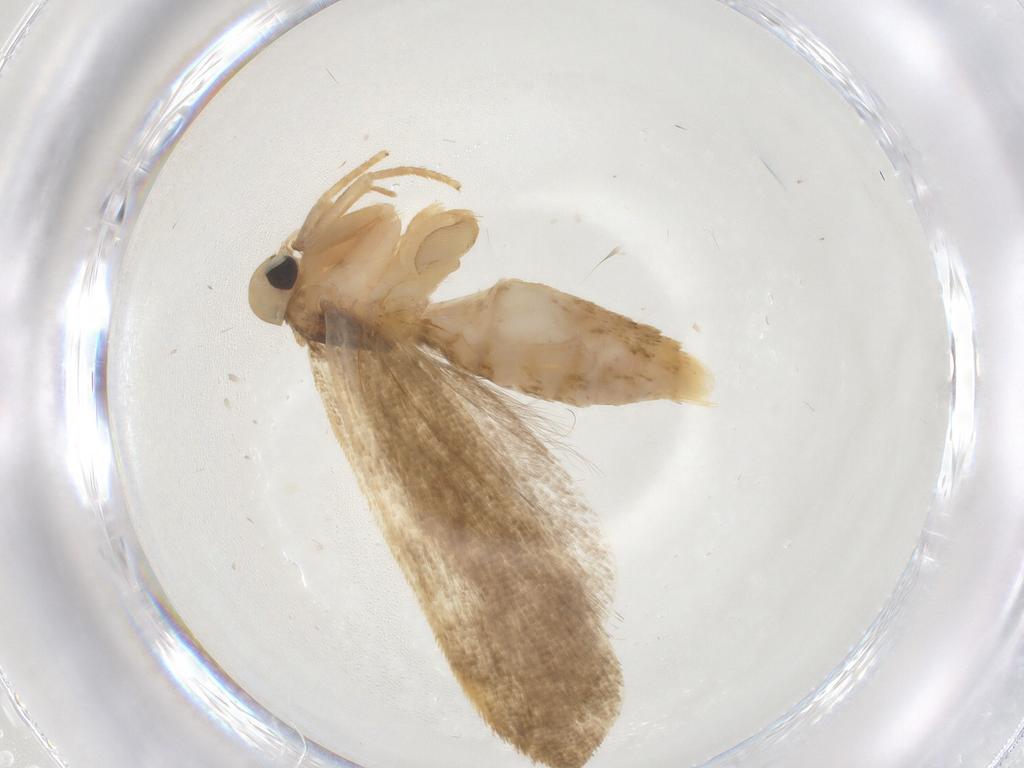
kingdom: Animalia
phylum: Arthropoda
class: Insecta
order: Lepidoptera
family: Gelechiidae
